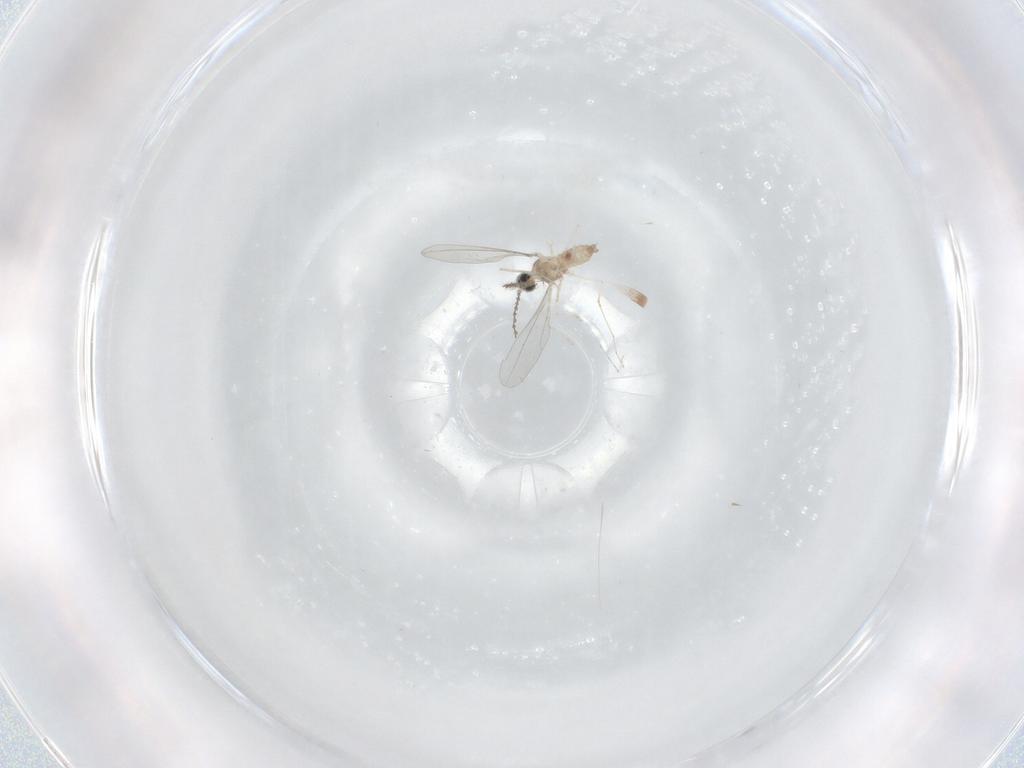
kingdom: Animalia
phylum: Arthropoda
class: Insecta
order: Diptera
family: Cecidomyiidae
